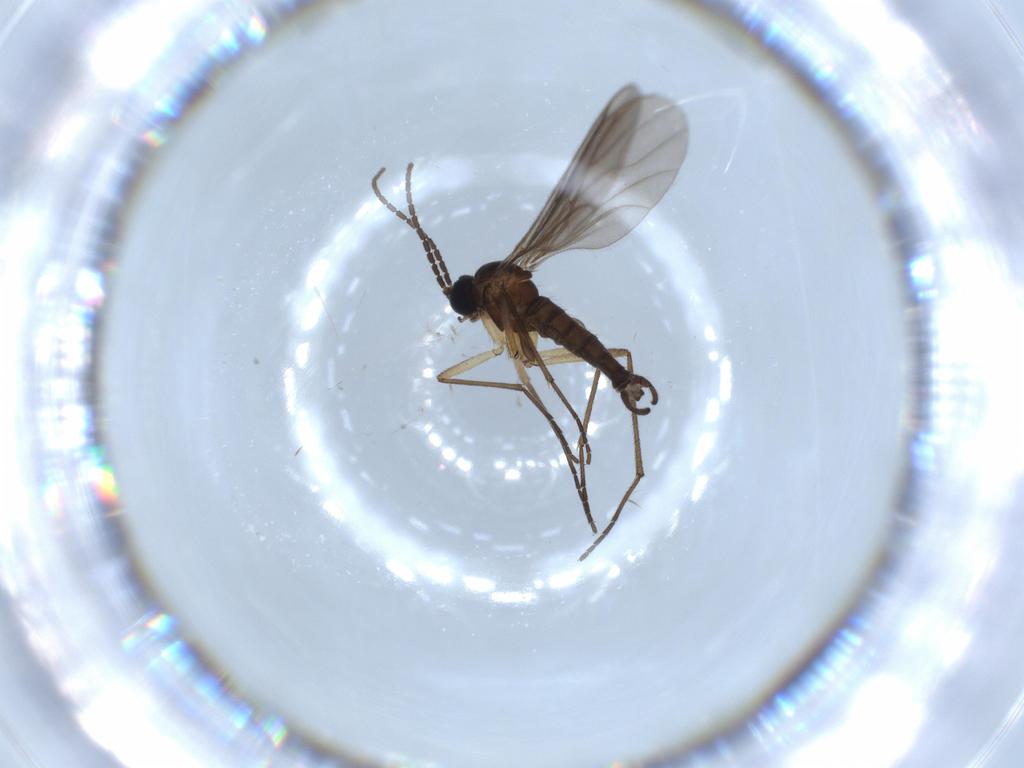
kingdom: Animalia
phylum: Arthropoda
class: Insecta
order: Diptera
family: Sciaridae
